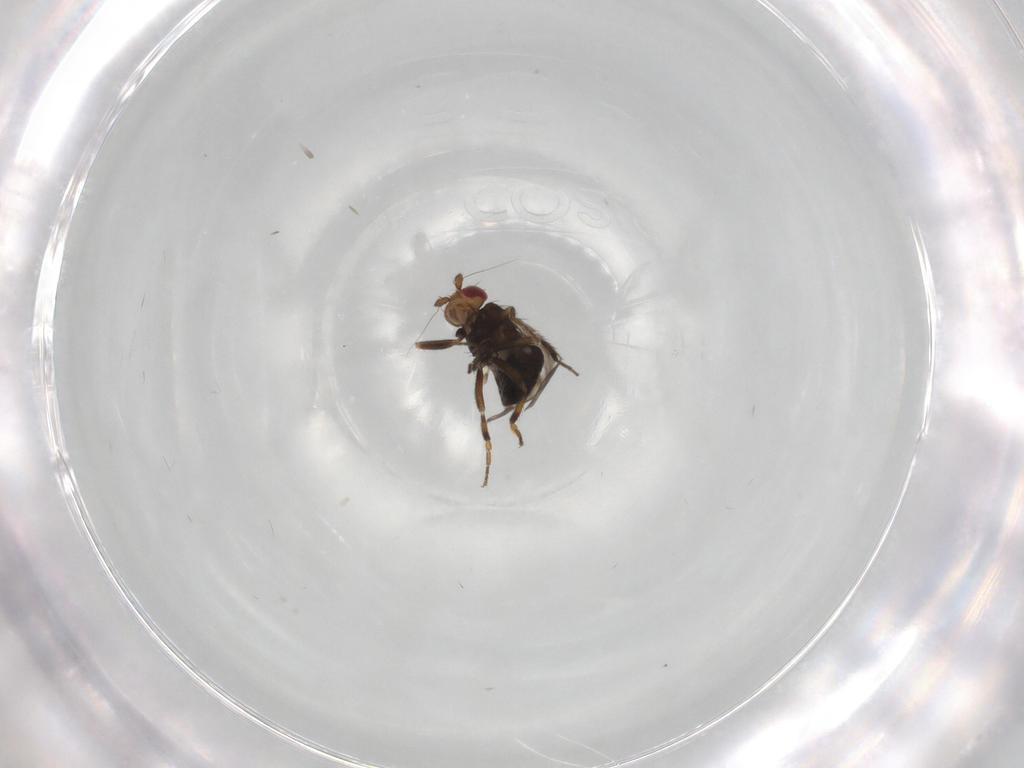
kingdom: Animalia
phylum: Arthropoda
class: Insecta
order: Diptera
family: Sphaeroceridae
